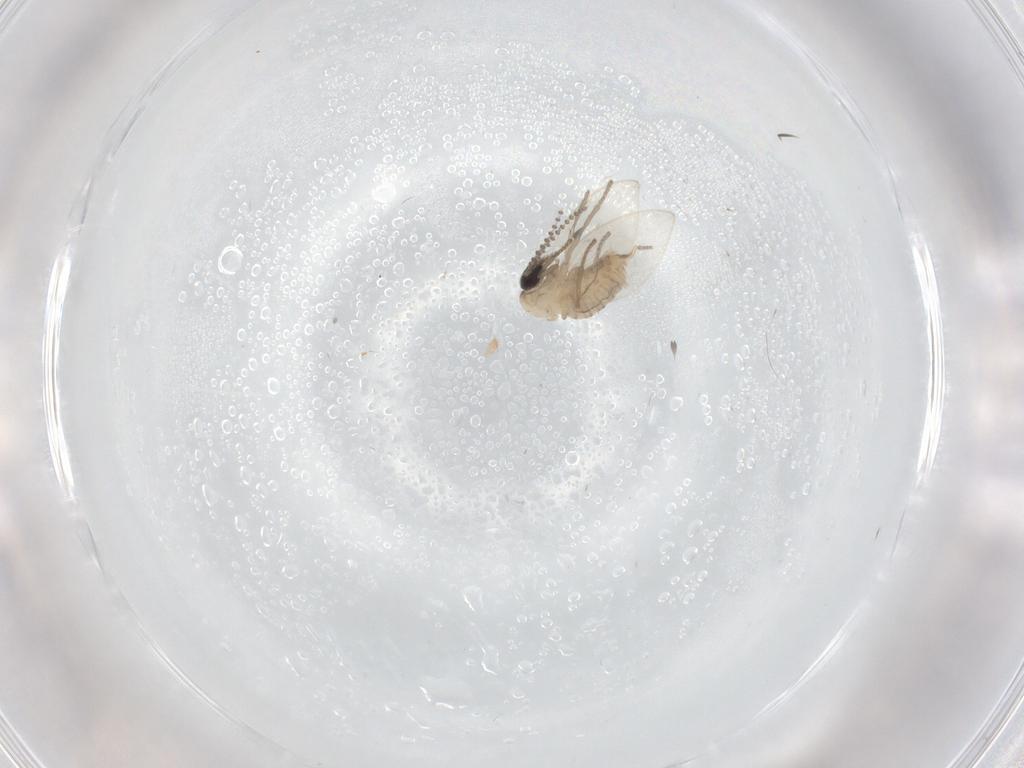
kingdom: Animalia
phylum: Arthropoda
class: Insecta
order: Diptera
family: Psychodidae
